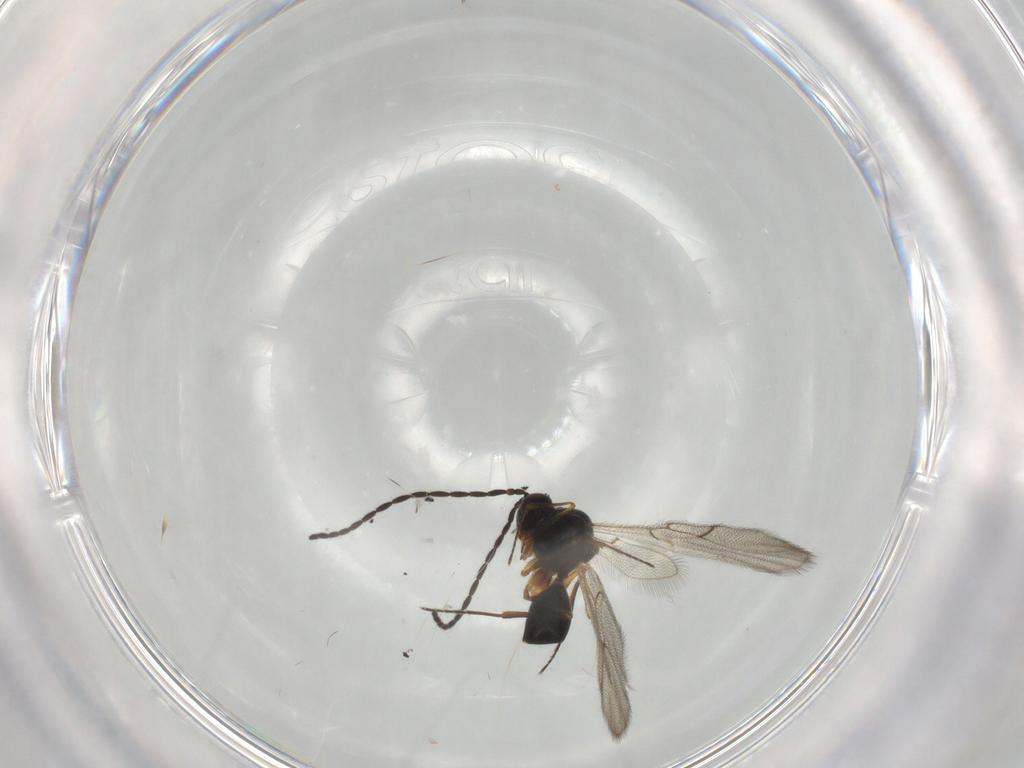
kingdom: Animalia
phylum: Arthropoda
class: Insecta
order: Hymenoptera
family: Figitidae
